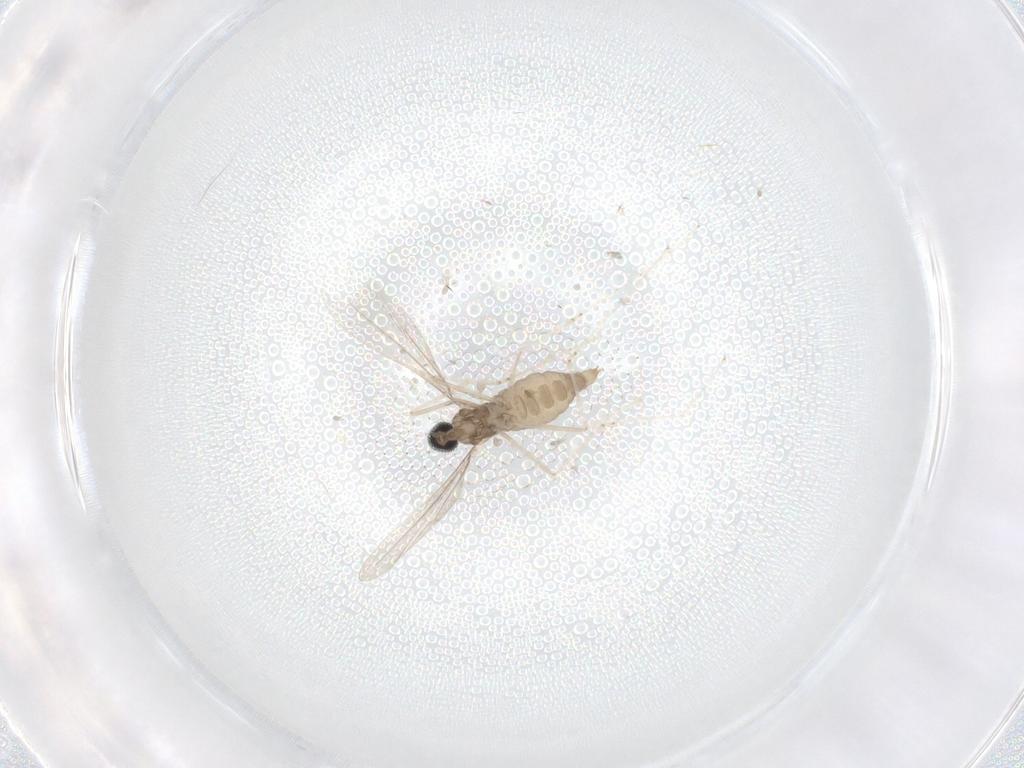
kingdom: Animalia
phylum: Arthropoda
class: Insecta
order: Diptera
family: Cecidomyiidae
